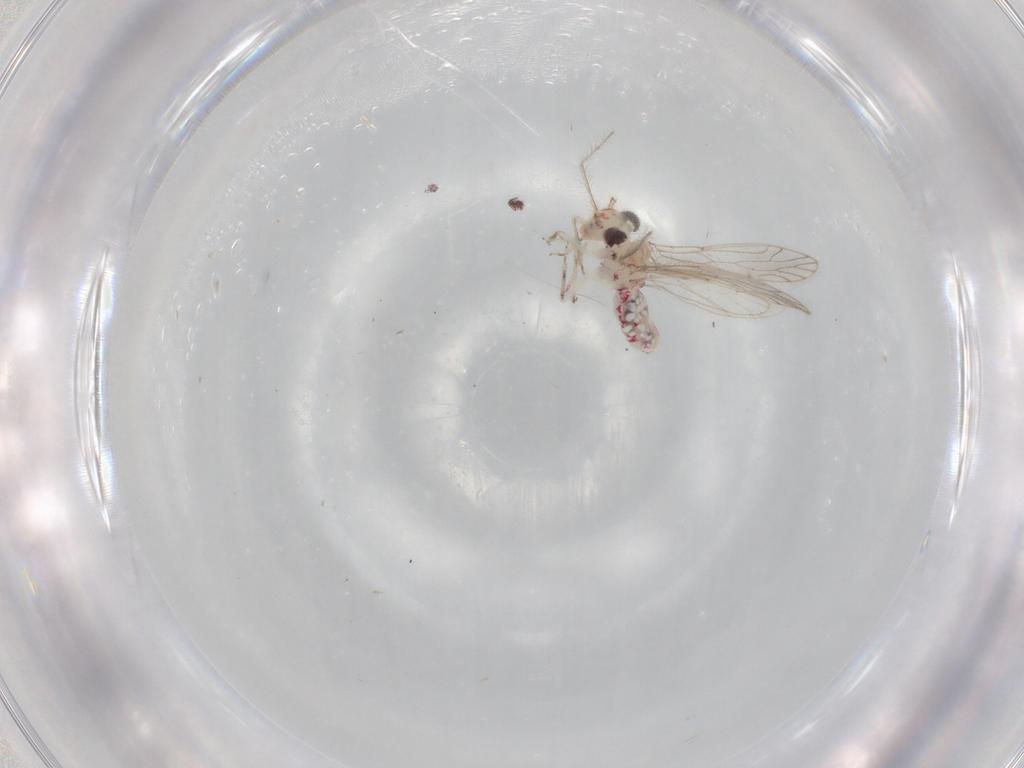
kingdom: Animalia
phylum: Arthropoda
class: Insecta
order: Psocodea
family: Caeciliusidae
